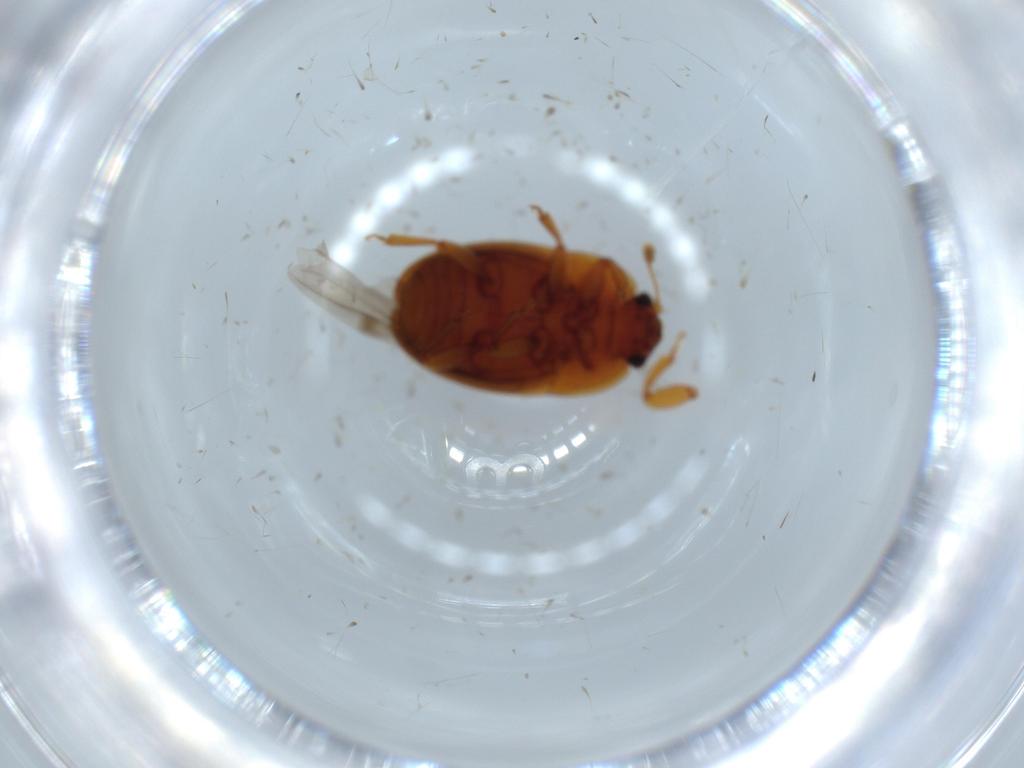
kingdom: Animalia
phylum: Arthropoda
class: Insecta
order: Coleoptera
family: Nitidulidae
